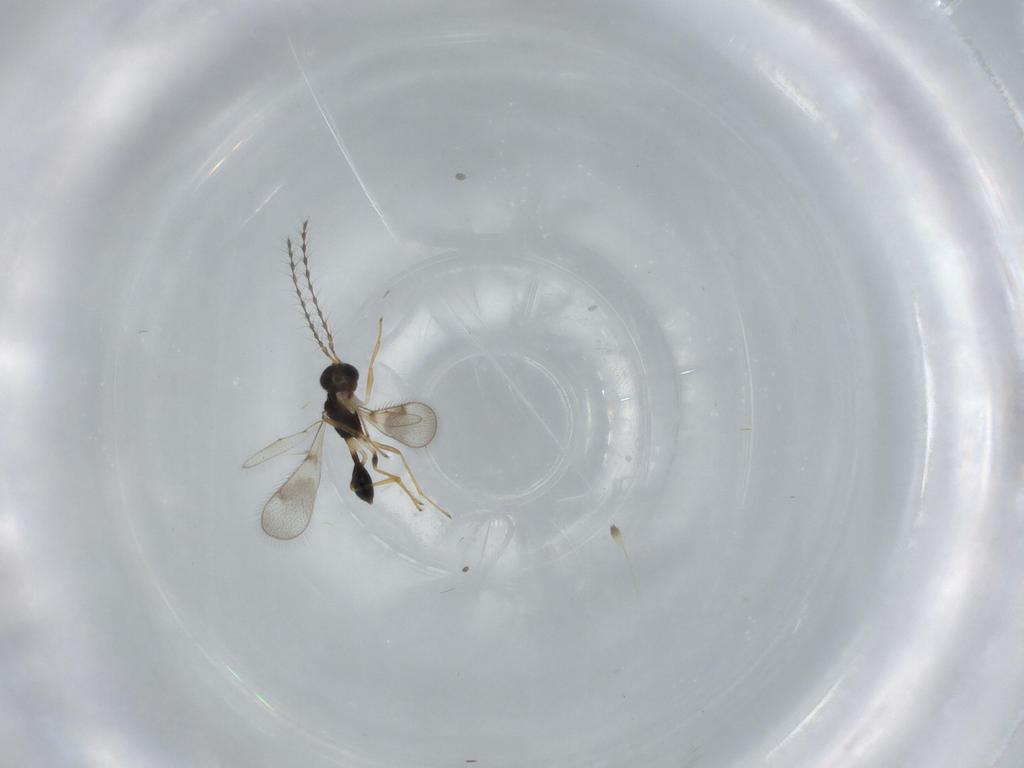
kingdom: Animalia
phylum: Arthropoda
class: Insecta
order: Hymenoptera
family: Diparidae
